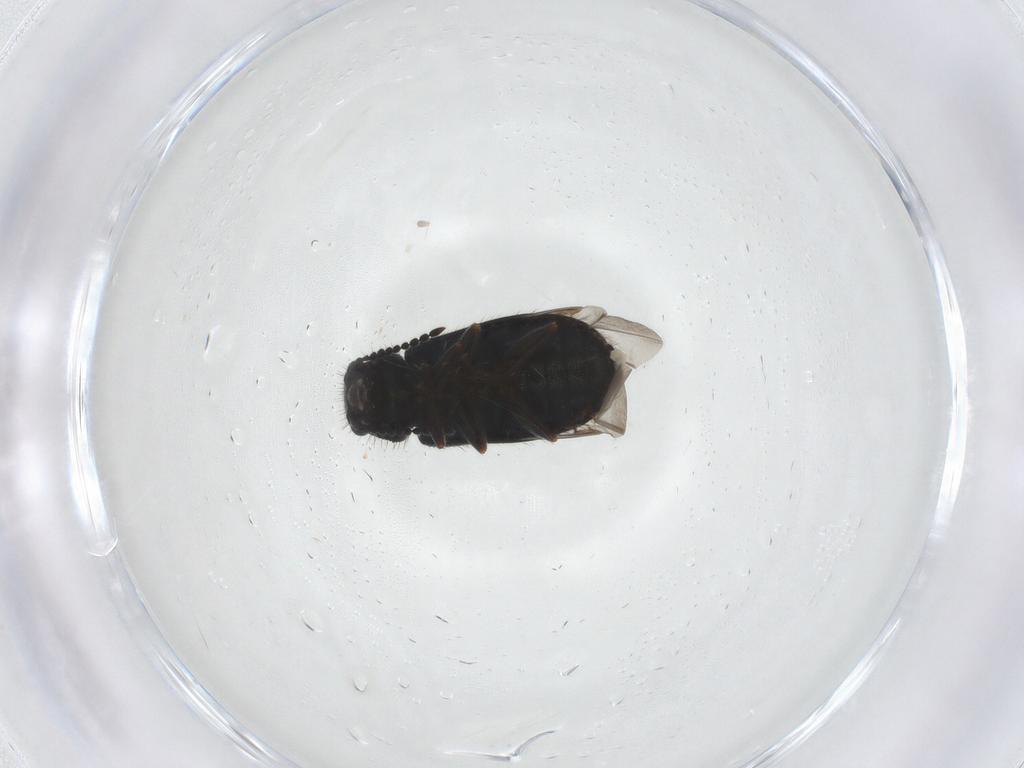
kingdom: Animalia
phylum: Arthropoda
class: Insecta
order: Coleoptera
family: Melyridae
